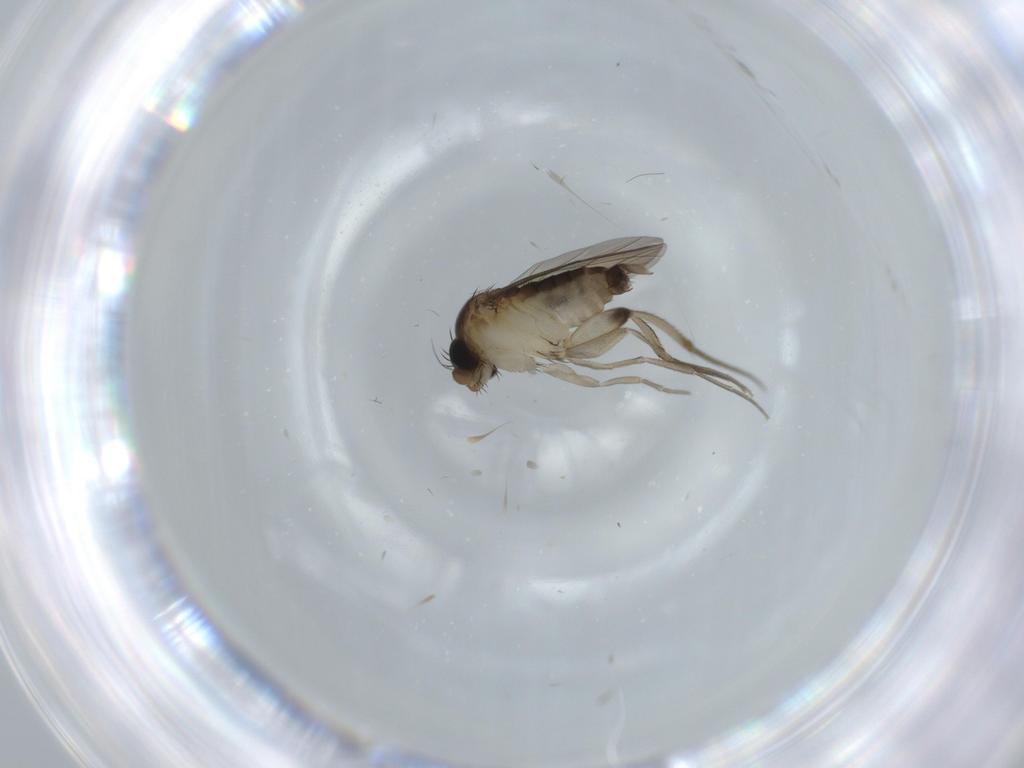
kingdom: Animalia
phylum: Arthropoda
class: Insecta
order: Diptera
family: Phoridae
